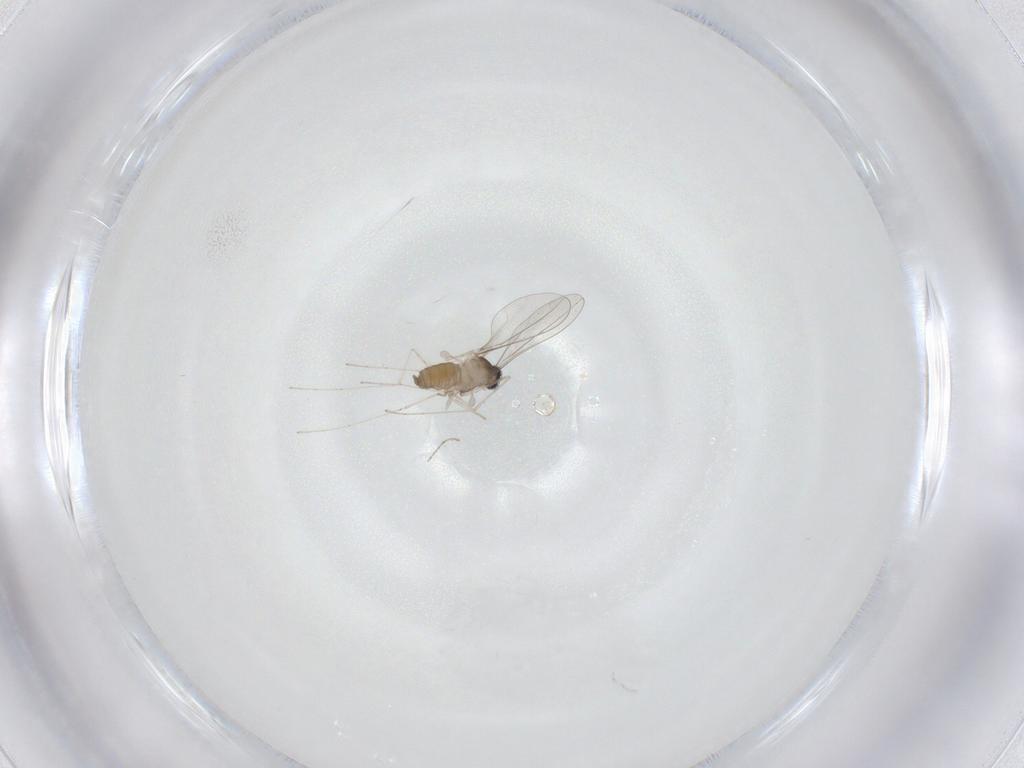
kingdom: Animalia
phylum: Arthropoda
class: Insecta
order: Diptera
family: Cecidomyiidae
